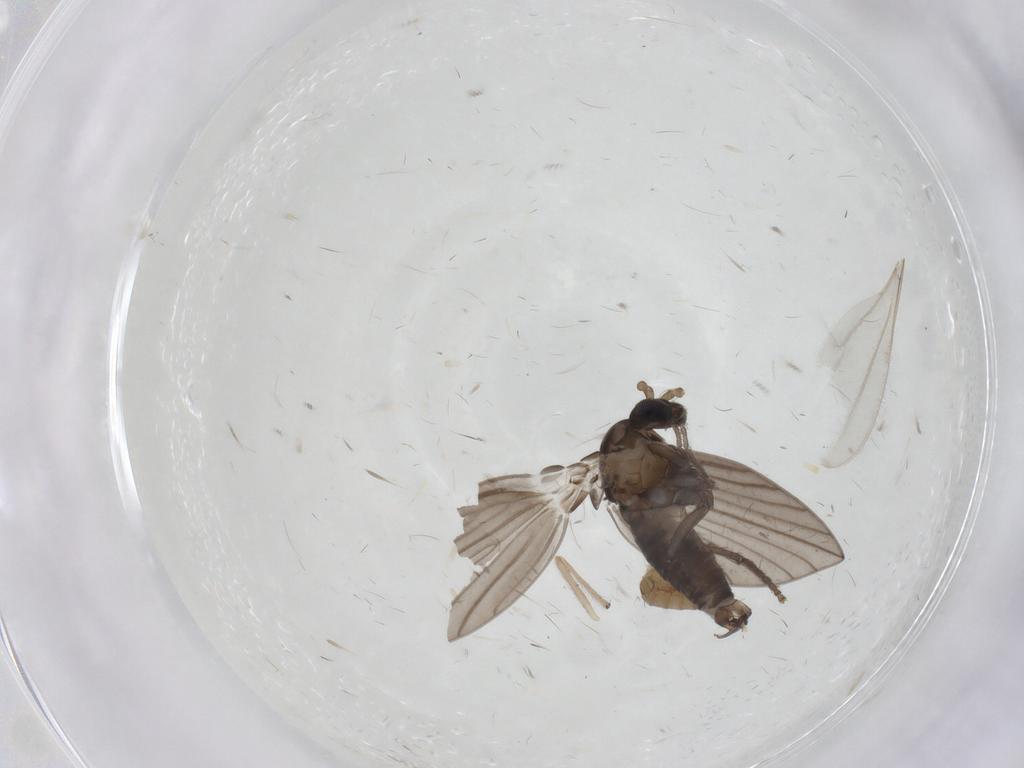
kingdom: Animalia
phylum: Arthropoda
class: Insecta
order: Diptera
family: Psychodidae
